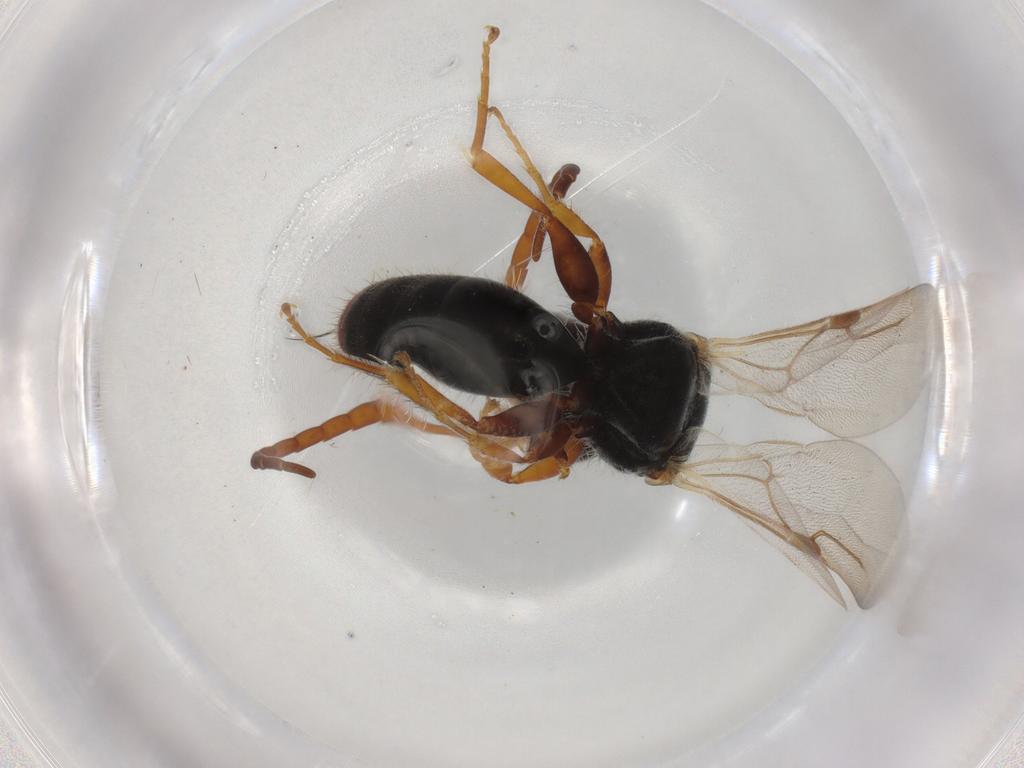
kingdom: Animalia
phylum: Arthropoda
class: Insecta
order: Hymenoptera
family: Bethylidae
